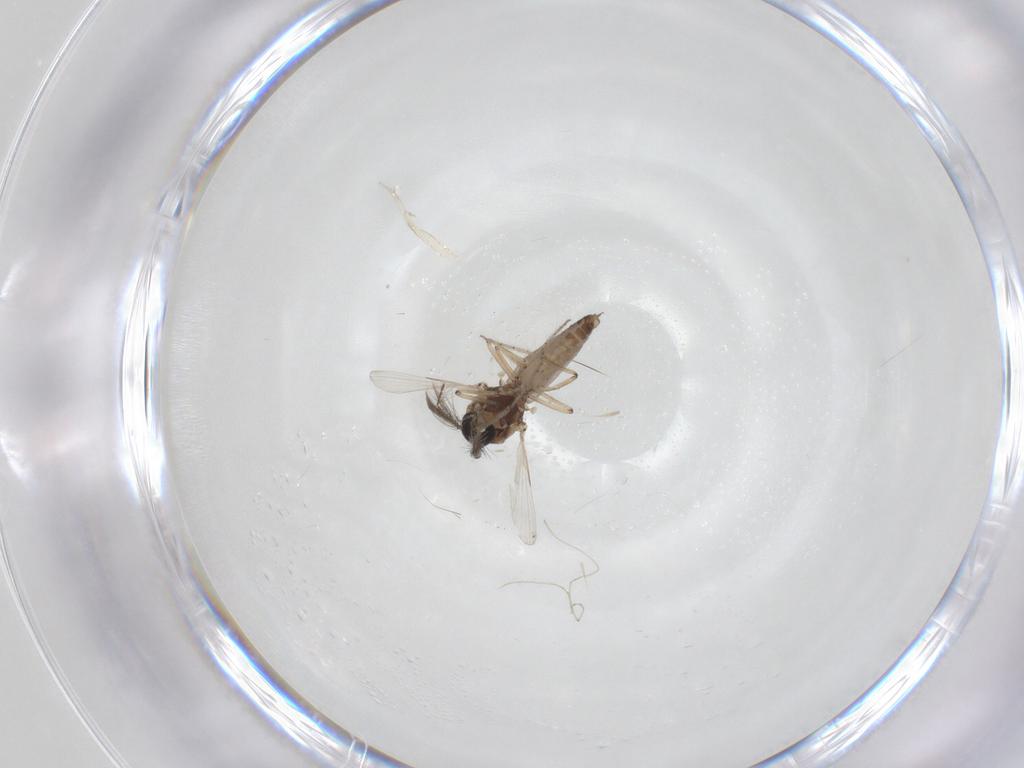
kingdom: Animalia
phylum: Arthropoda
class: Insecta
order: Diptera
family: Ceratopogonidae
